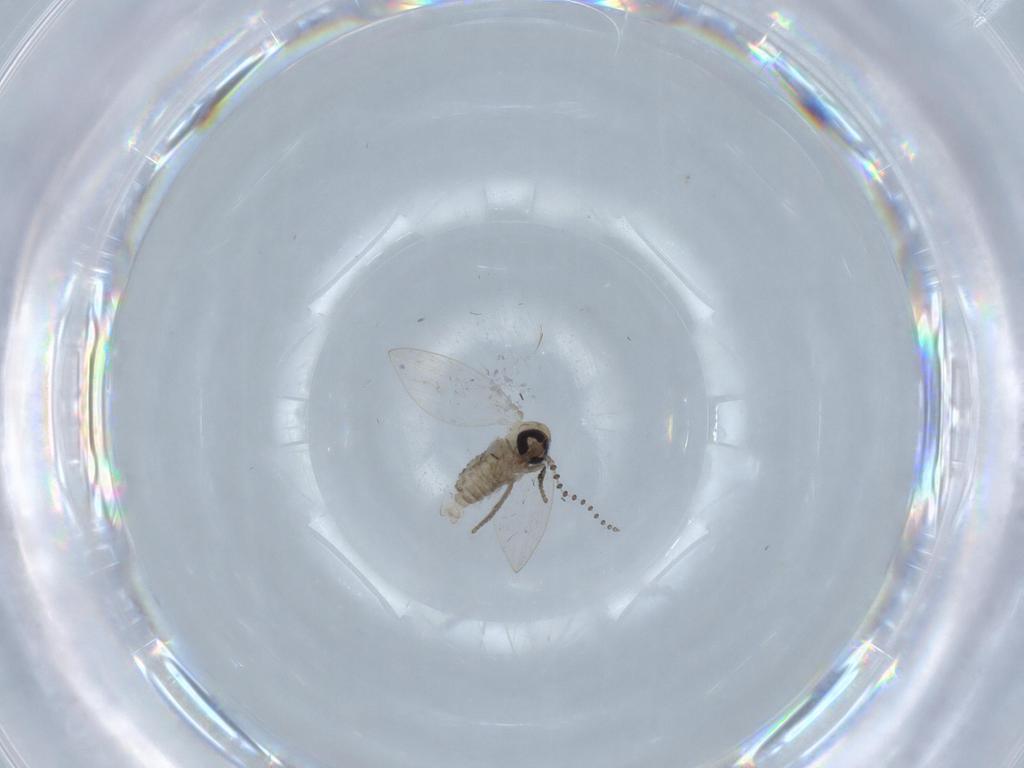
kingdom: Animalia
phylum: Arthropoda
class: Insecta
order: Diptera
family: Psychodidae
